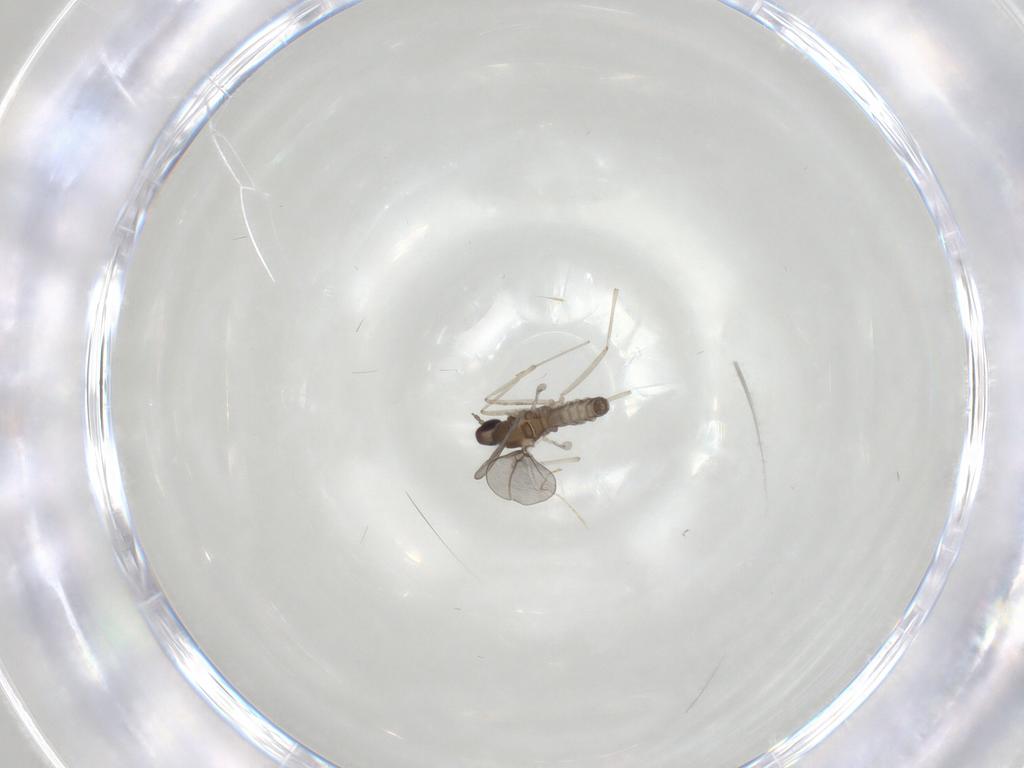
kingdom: Animalia
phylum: Arthropoda
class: Insecta
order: Diptera
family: Cecidomyiidae
